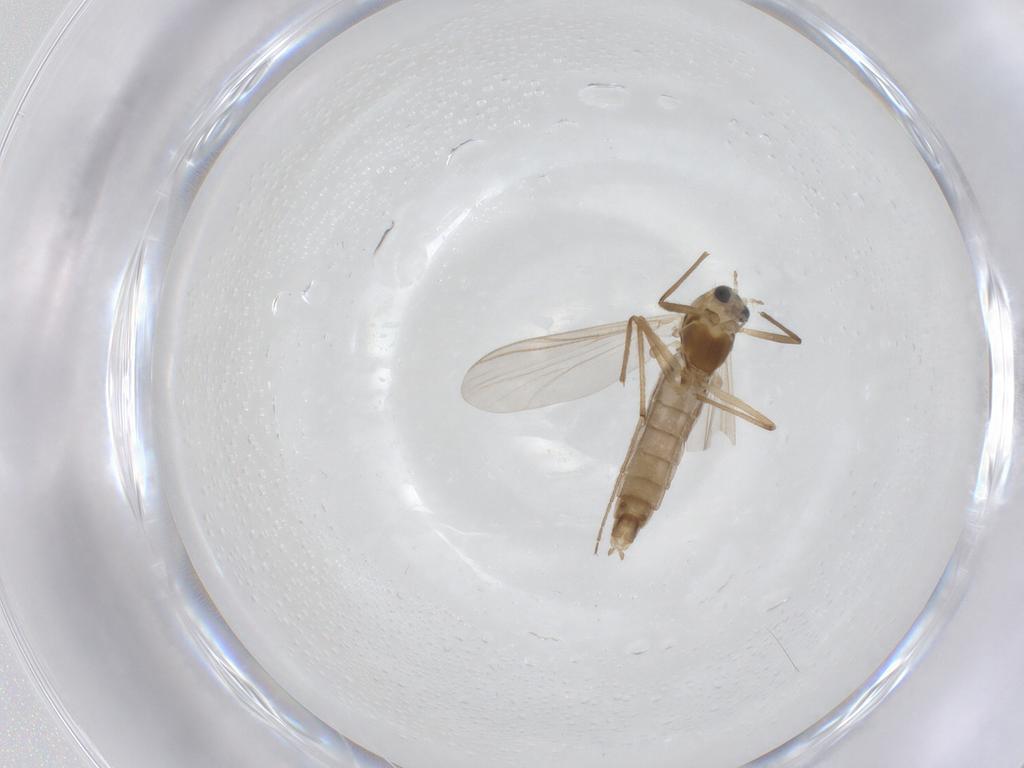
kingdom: Animalia
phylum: Arthropoda
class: Insecta
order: Diptera
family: Chironomidae
